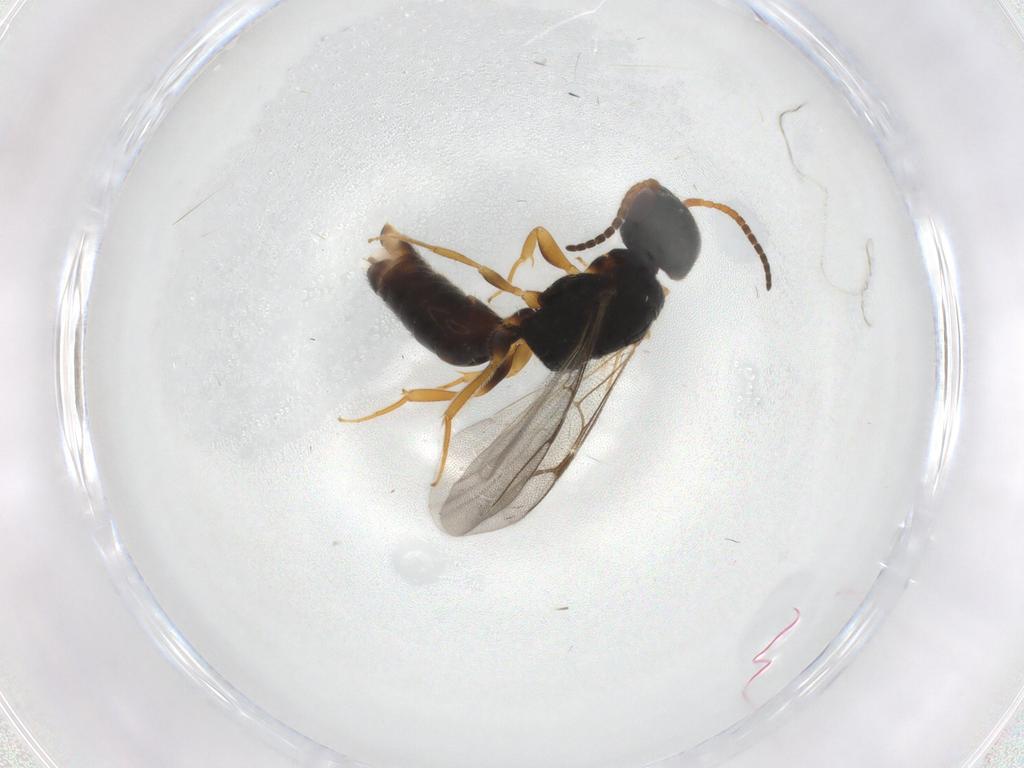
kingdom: Animalia
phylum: Arthropoda
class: Insecta
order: Hymenoptera
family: Bethylidae
